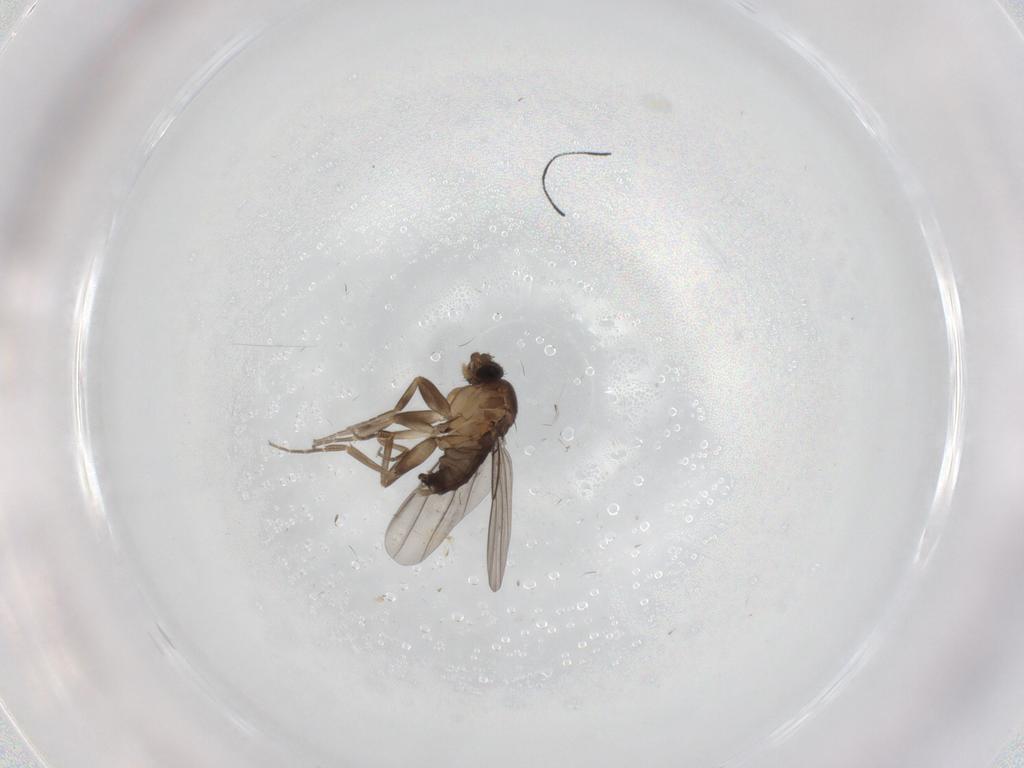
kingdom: Animalia
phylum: Arthropoda
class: Insecta
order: Diptera
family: Phoridae
